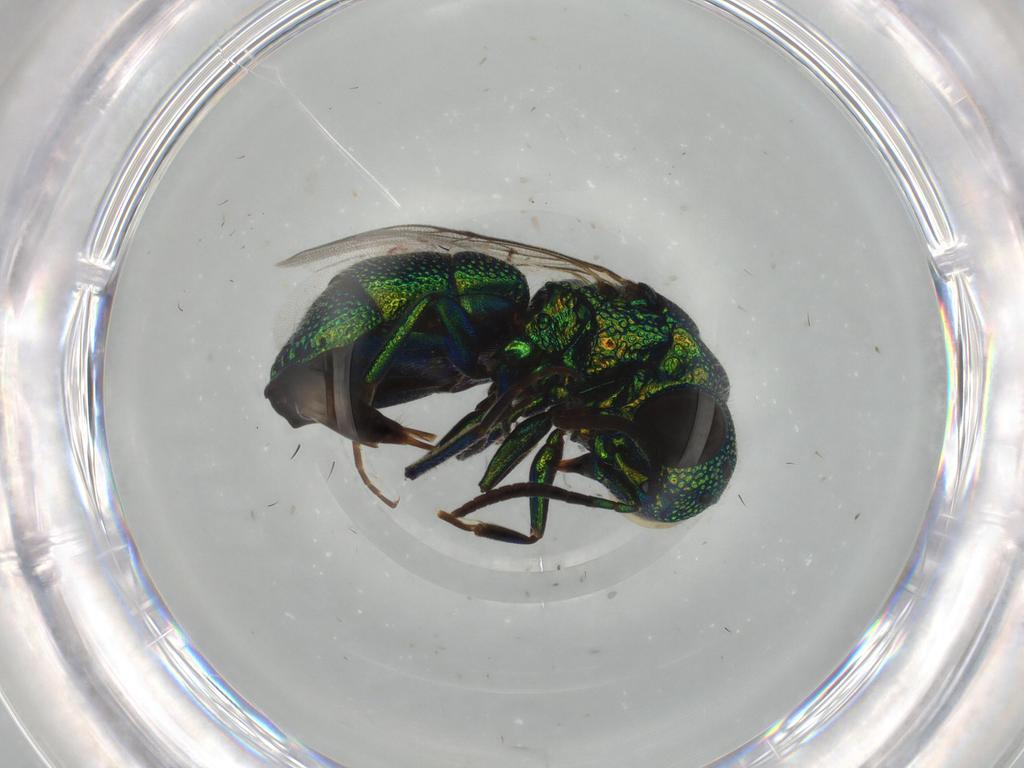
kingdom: Animalia
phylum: Arthropoda
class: Insecta
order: Hymenoptera
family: Chrysididae
